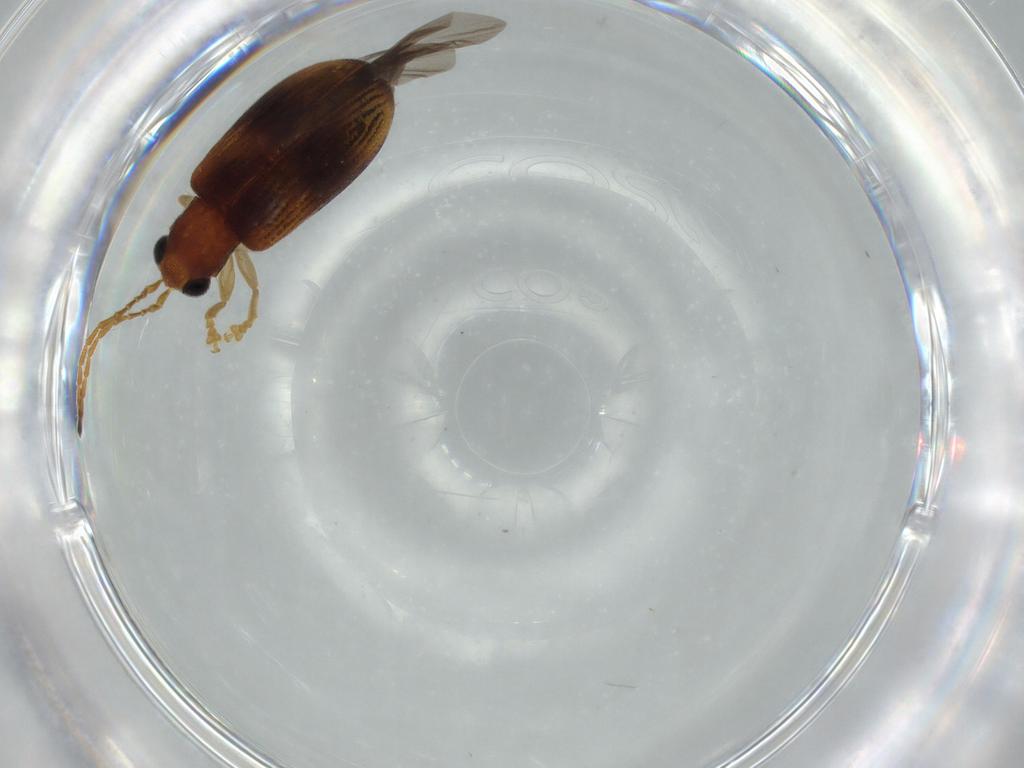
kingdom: Animalia
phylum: Arthropoda
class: Insecta
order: Coleoptera
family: Chrysomelidae
